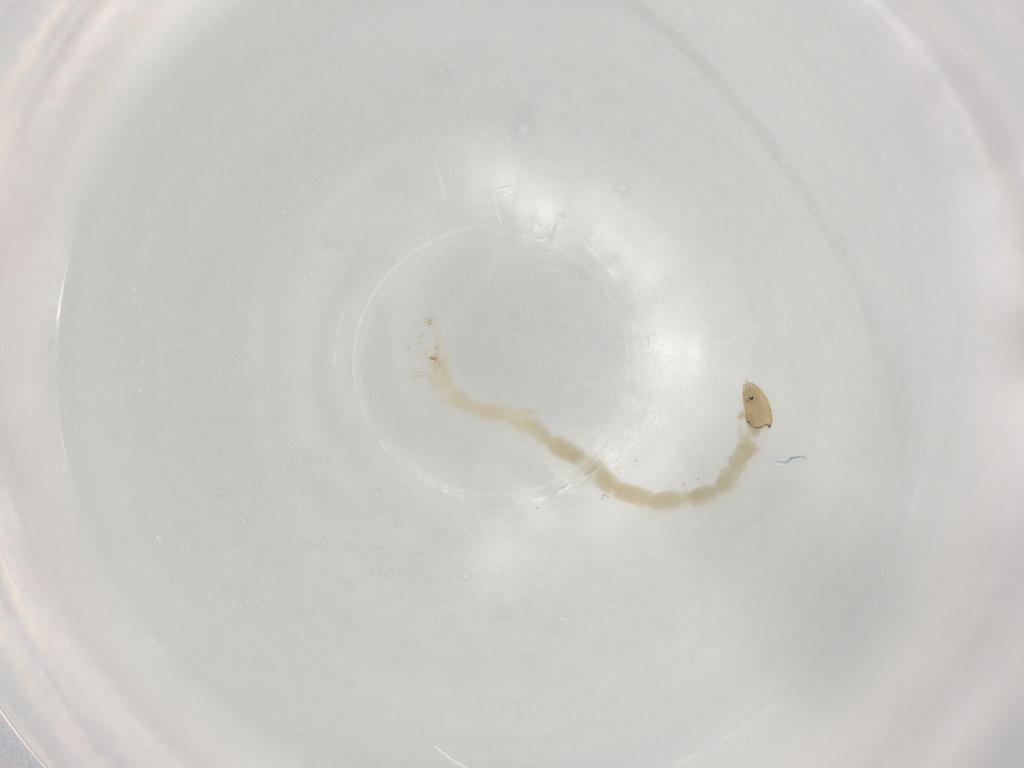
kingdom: Animalia
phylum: Arthropoda
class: Insecta
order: Diptera
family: Chironomidae
